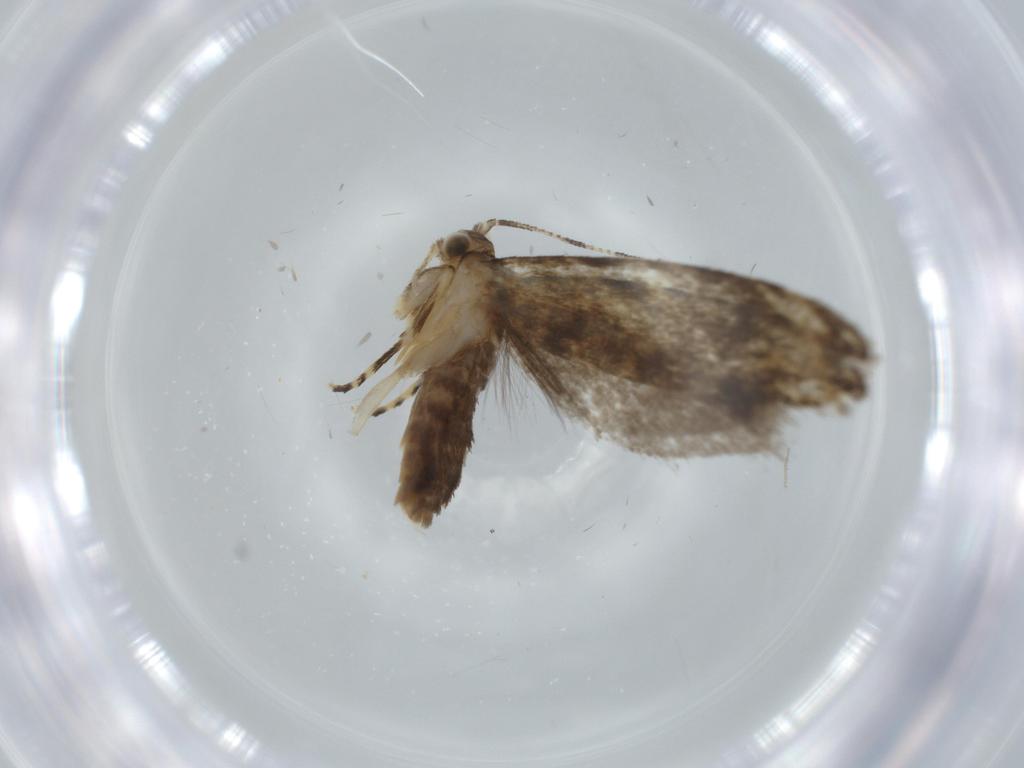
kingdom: Animalia
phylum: Arthropoda
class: Insecta
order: Lepidoptera
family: Tineidae
